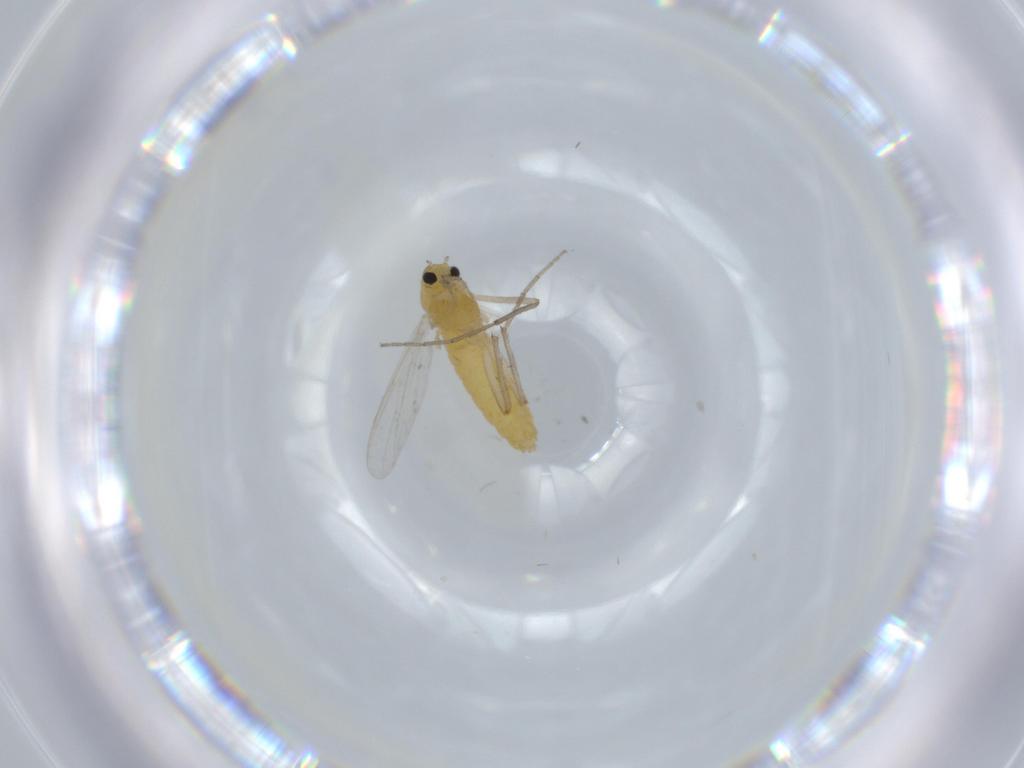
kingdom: Animalia
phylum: Arthropoda
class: Insecta
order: Diptera
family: Chironomidae
